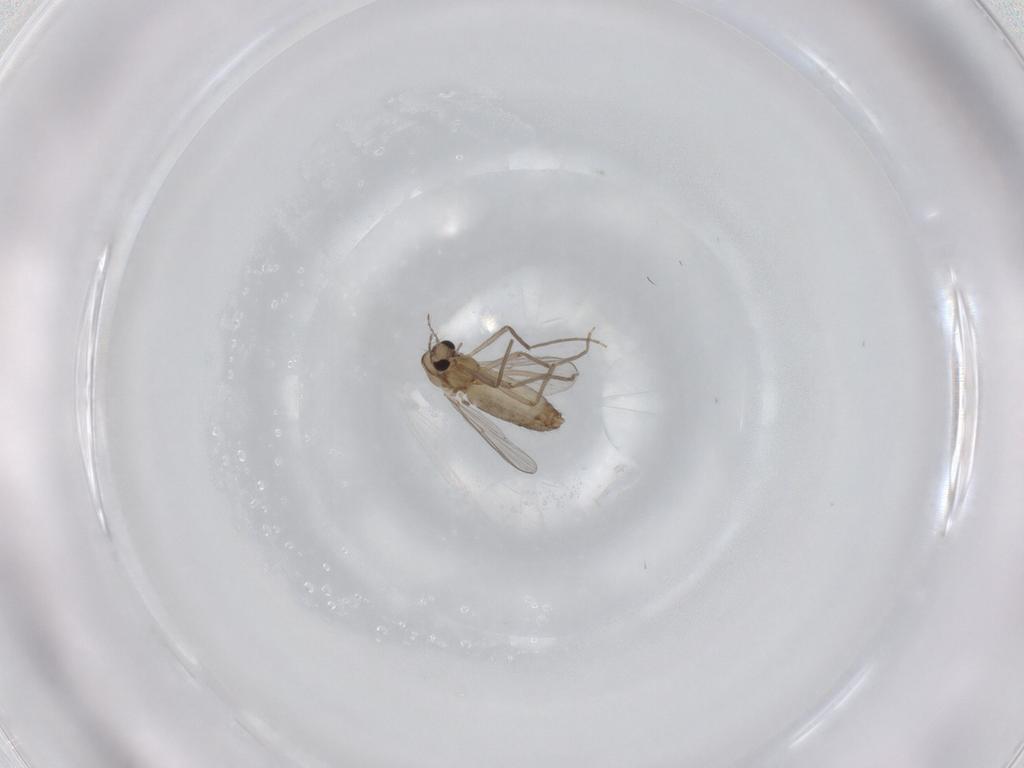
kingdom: Animalia
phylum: Arthropoda
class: Insecta
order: Diptera
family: Chironomidae
